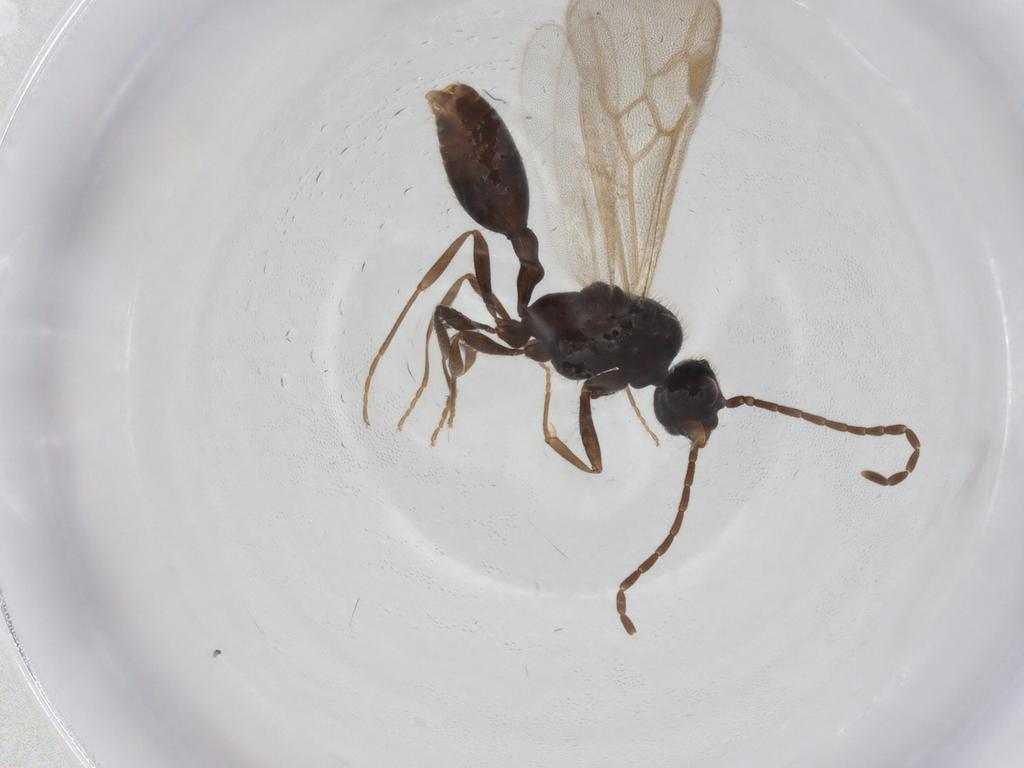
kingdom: Animalia
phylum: Arthropoda
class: Insecta
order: Hymenoptera
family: Formicidae
